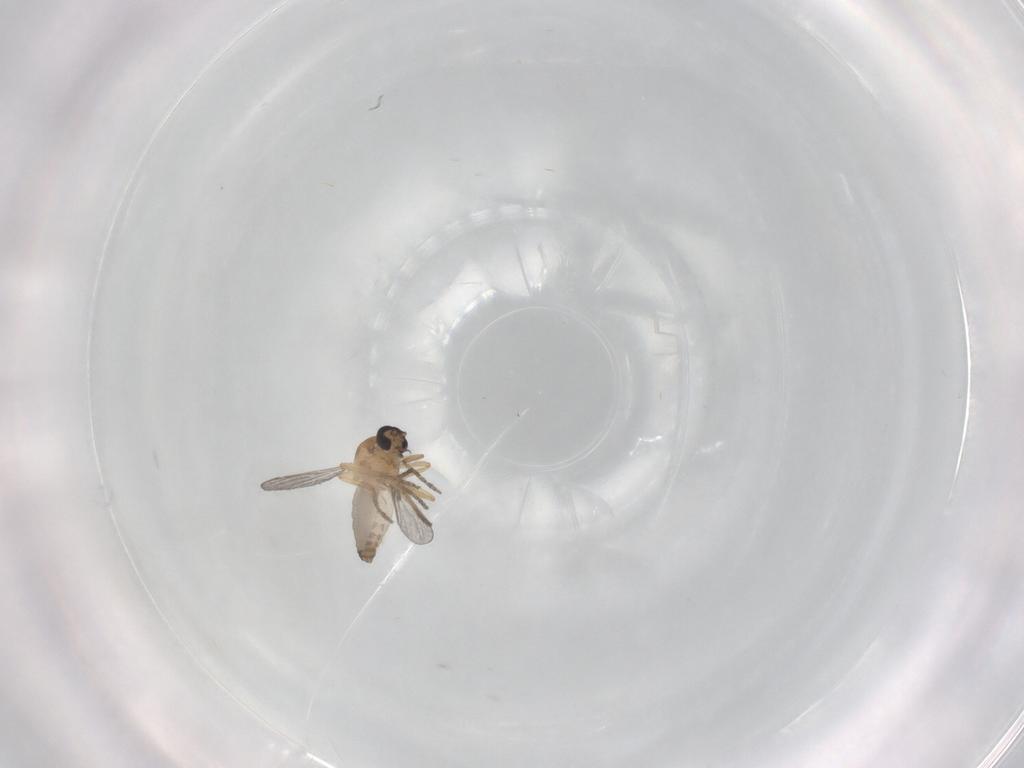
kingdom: Animalia
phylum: Arthropoda
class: Insecta
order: Diptera
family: Psychodidae
